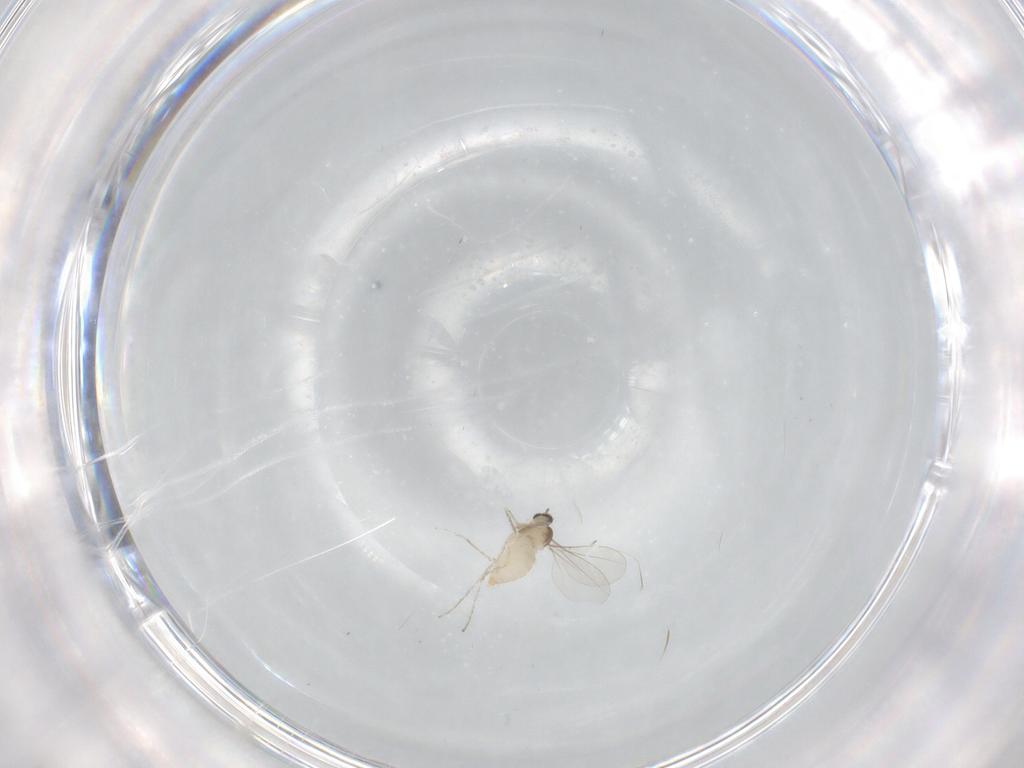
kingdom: Animalia
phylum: Arthropoda
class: Insecta
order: Diptera
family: Cecidomyiidae
